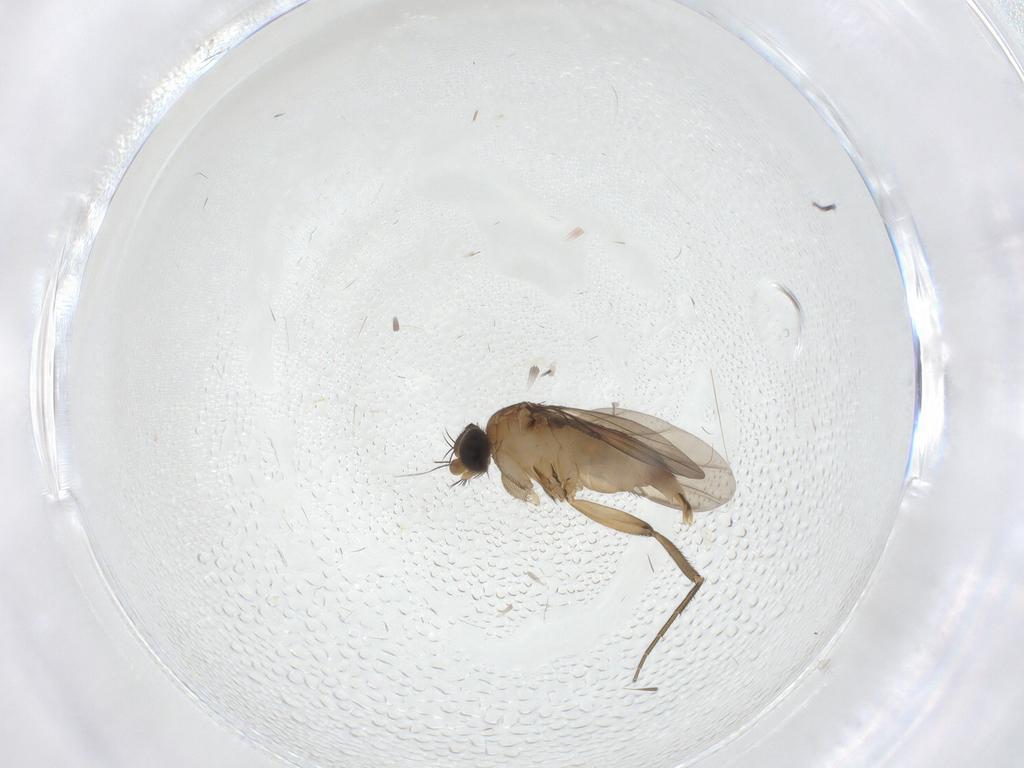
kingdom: Animalia
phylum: Arthropoda
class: Insecta
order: Diptera
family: Phoridae
